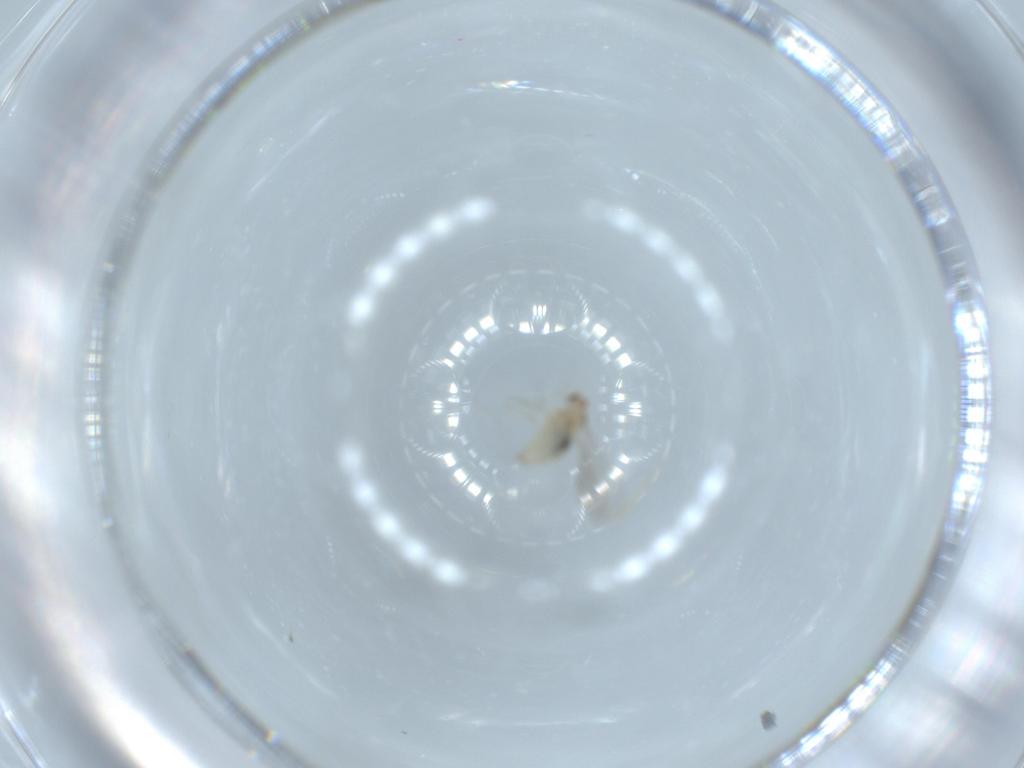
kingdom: Animalia
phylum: Arthropoda
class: Insecta
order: Diptera
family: Cecidomyiidae
